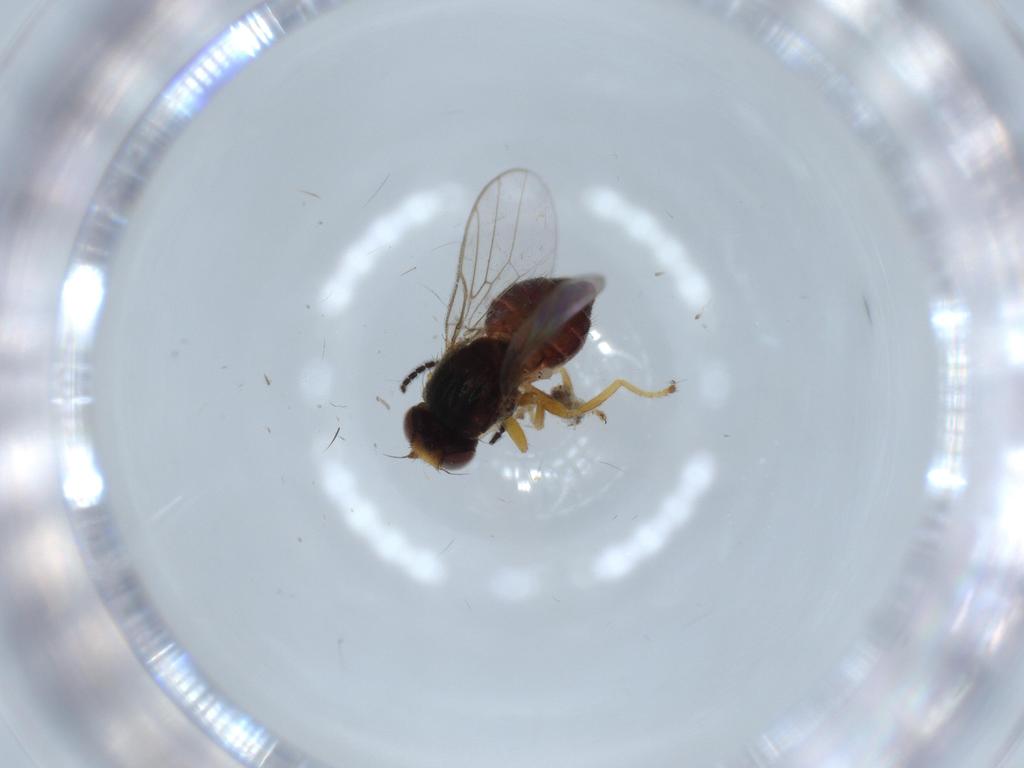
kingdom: Animalia
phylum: Arthropoda
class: Insecta
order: Diptera
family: Chloropidae
